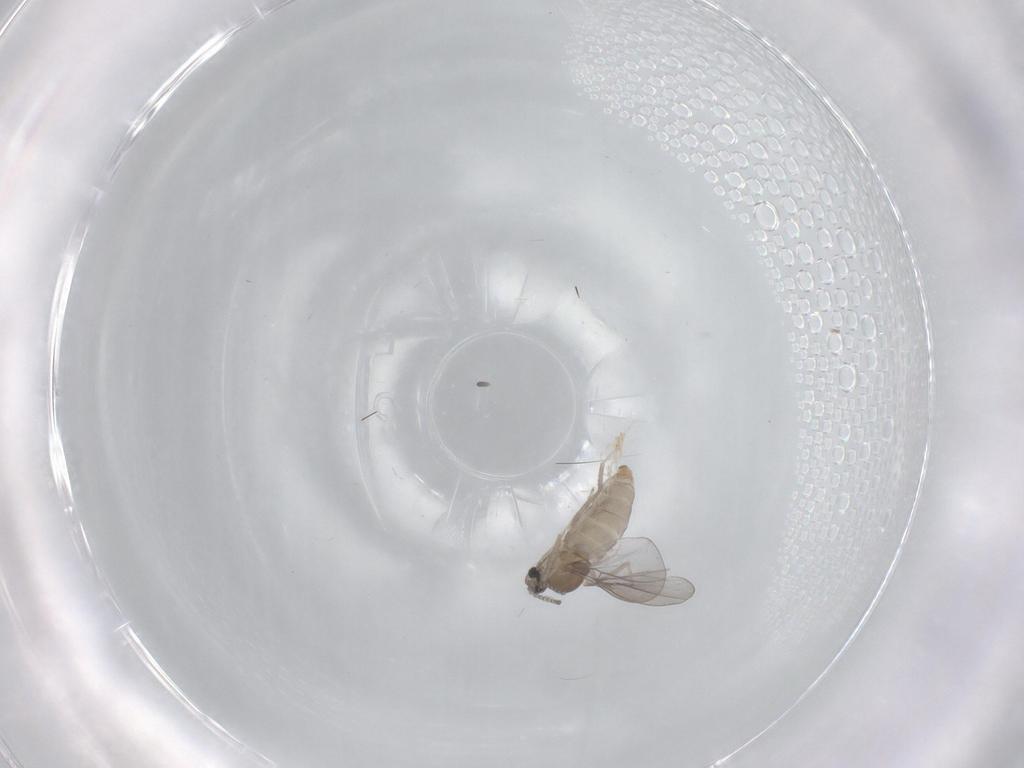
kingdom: Animalia
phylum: Arthropoda
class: Insecta
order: Diptera
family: Cecidomyiidae
